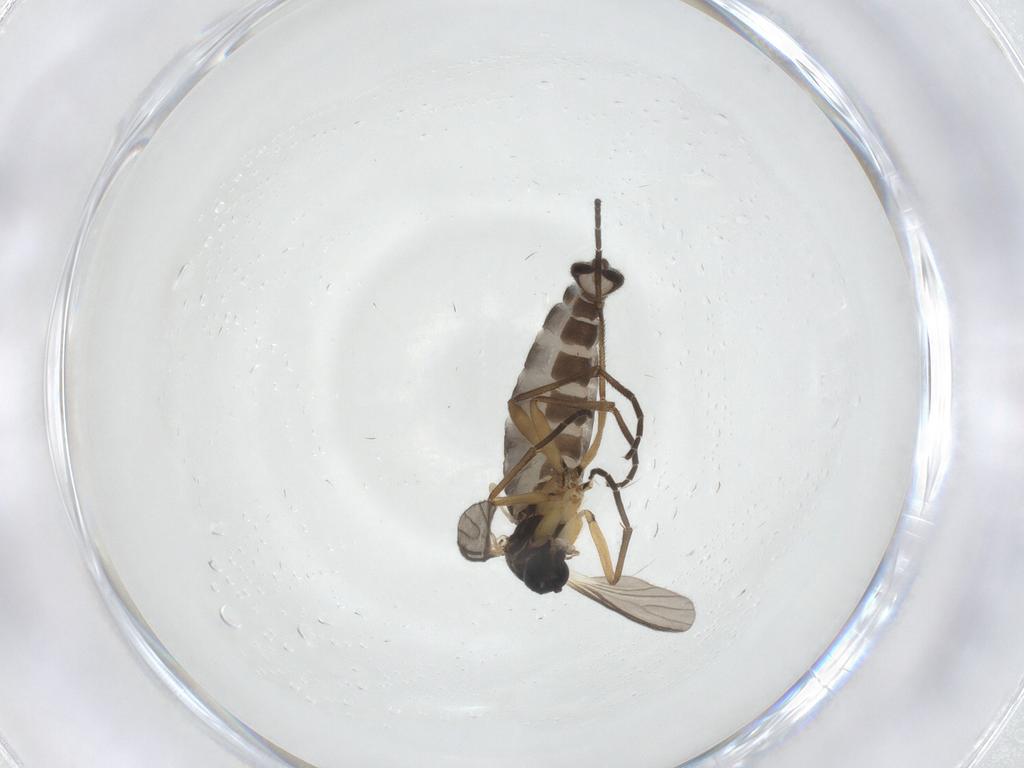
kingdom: Animalia
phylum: Arthropoda
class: Insecta
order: Diptera
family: Sciaridae
